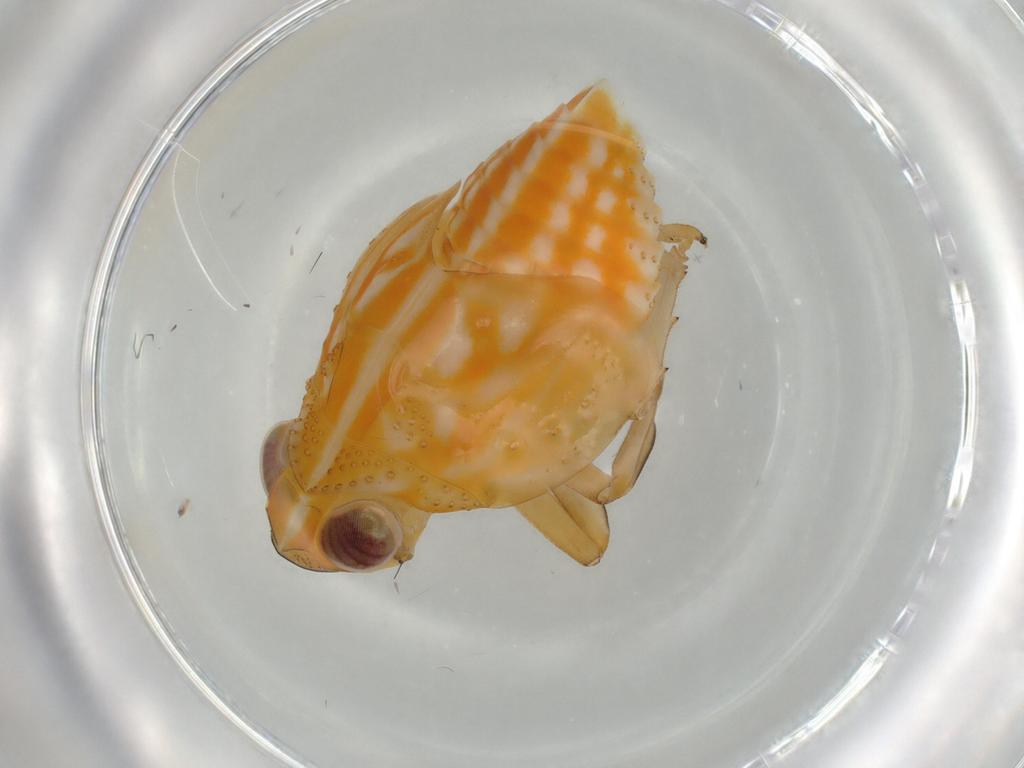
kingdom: Animalia
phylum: Arthropoda
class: Insecta
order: Hemiptera
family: Issidae
